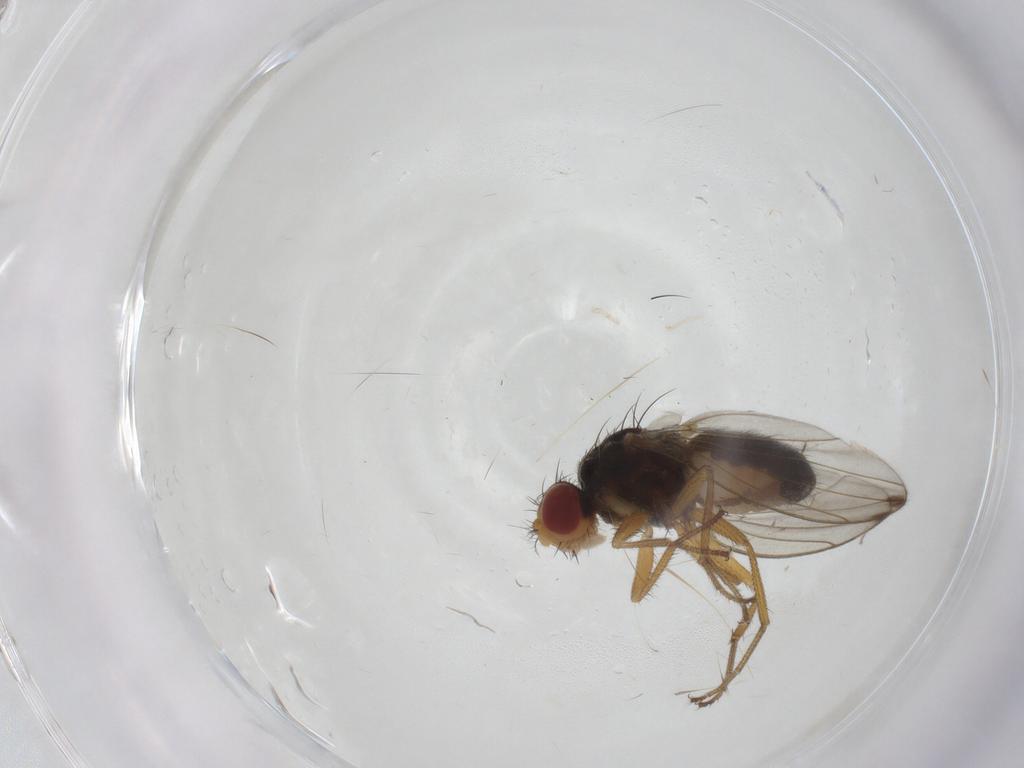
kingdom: Animalia
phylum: Arthropoda
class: Insecta
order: Diptera
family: Drosophilidae
